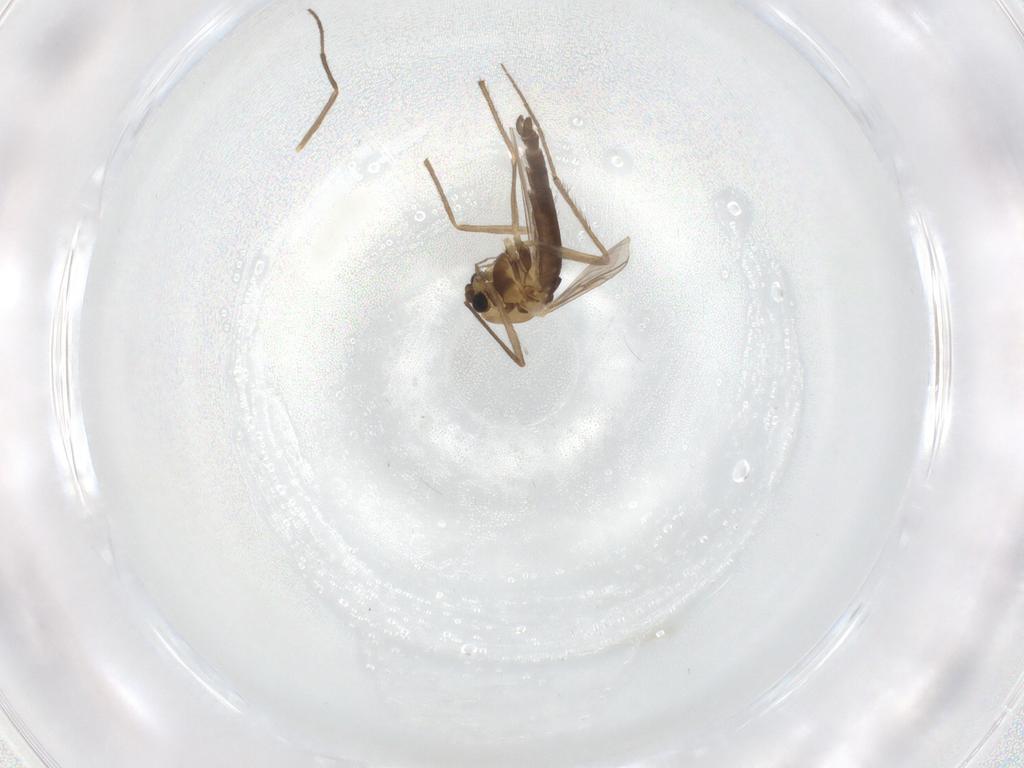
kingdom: Animalia
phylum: Arthropoda
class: Insecta
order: Diptera
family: Chironomidae
